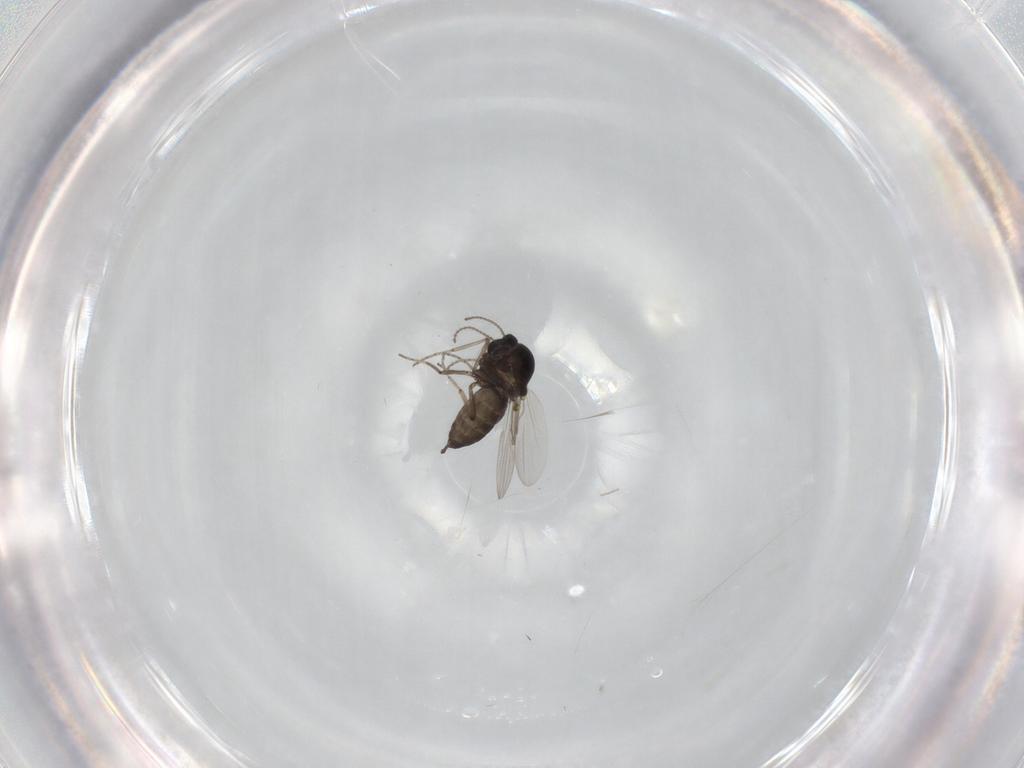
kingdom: Animalia
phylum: Arthropoda
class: Insecta
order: Diptera
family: Ceratopogonidae
